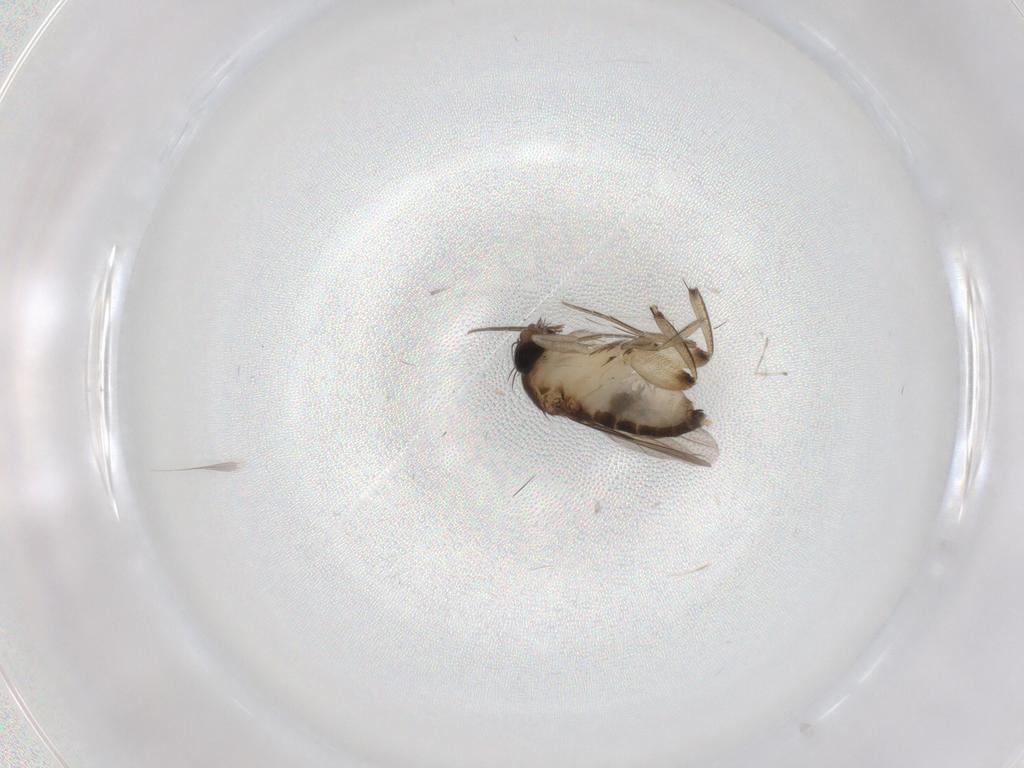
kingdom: Animalia
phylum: Arthropoda
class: Insecta
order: Diptera
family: Phoridae
